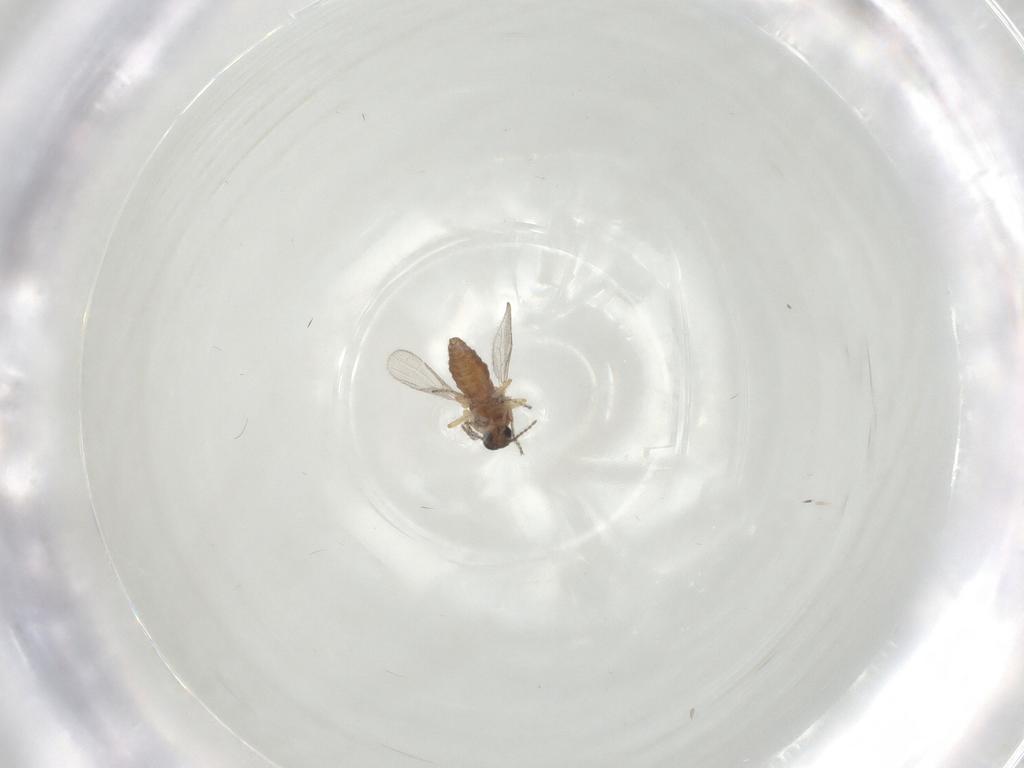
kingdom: Animalia
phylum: Arthropoda
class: Insecta
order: Diptera
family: Ceratopogonidae
